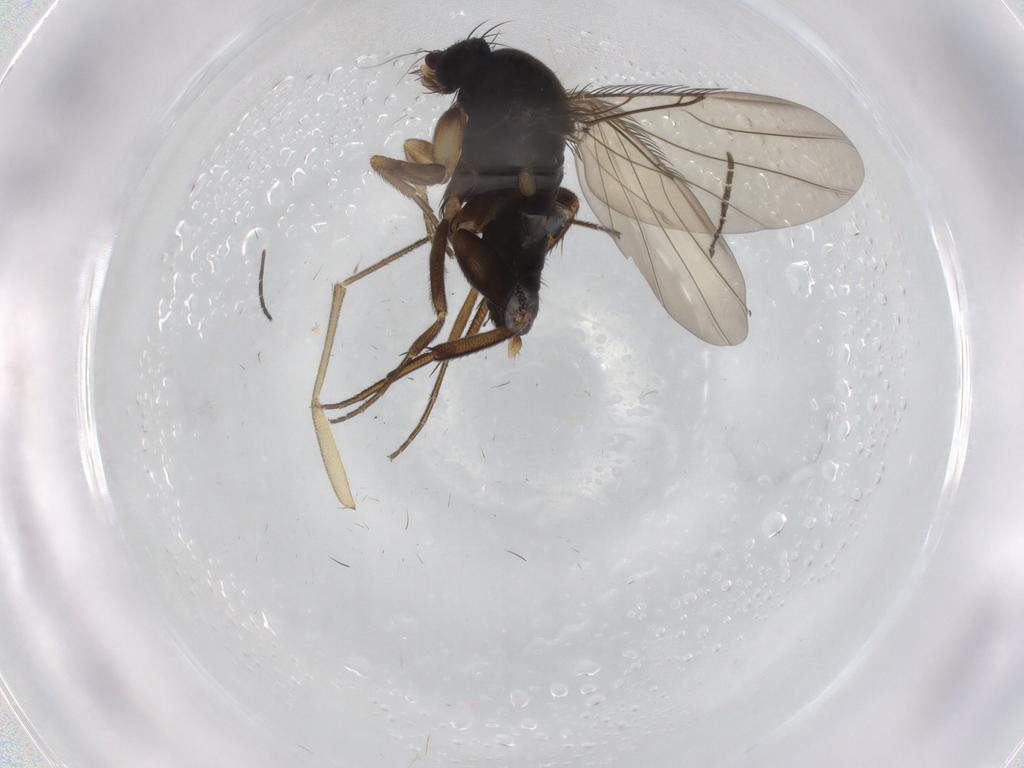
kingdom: Animalia
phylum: Arthropoda
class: Insecta
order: Diptera
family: Phoridae
